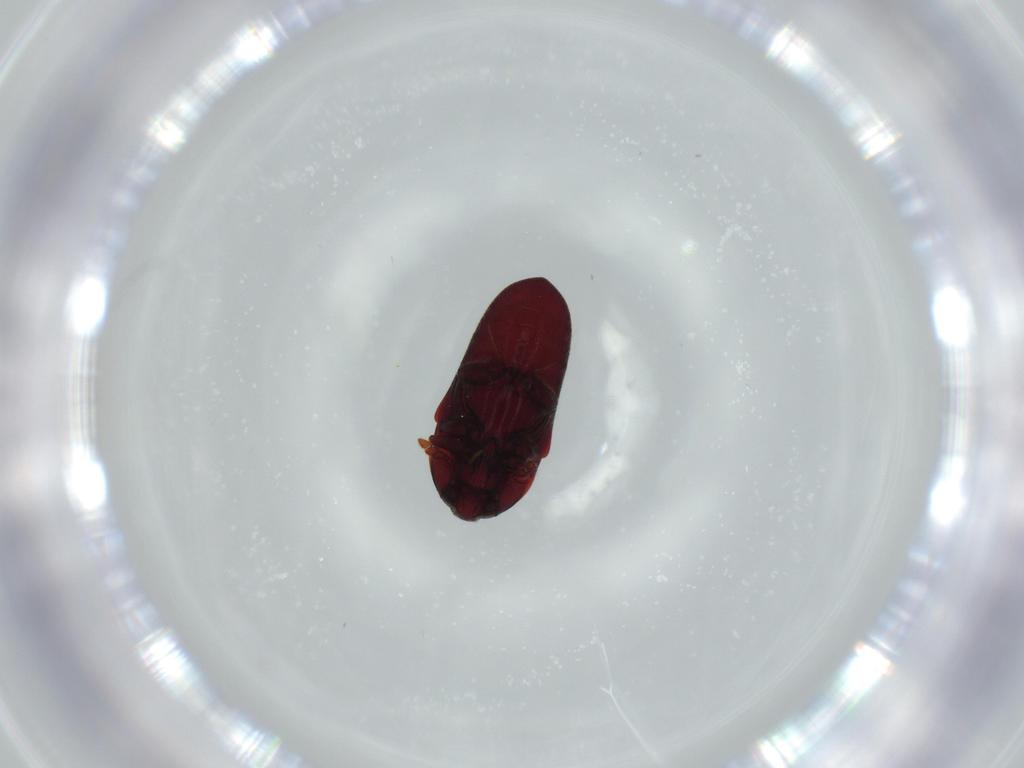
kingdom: Animalia
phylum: Arthropoda
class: Insecta
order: Coleoptera
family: Throscidae
